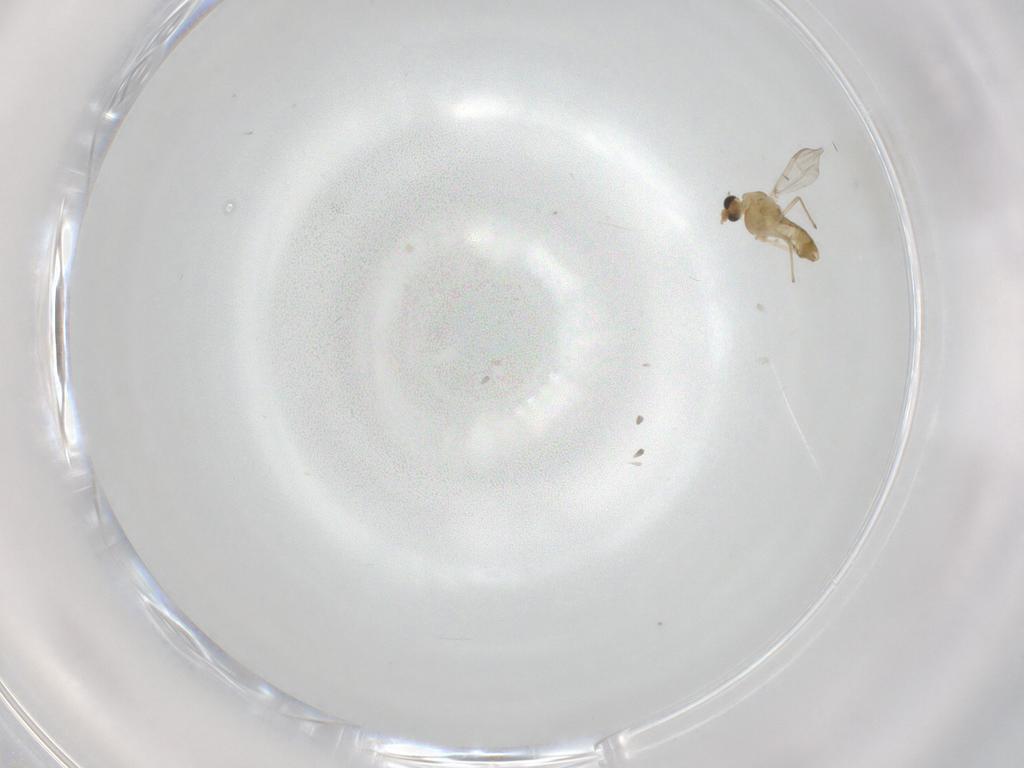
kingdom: Animalia
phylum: Arthropoda
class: Insecta
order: Diptera
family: Chironomidae
